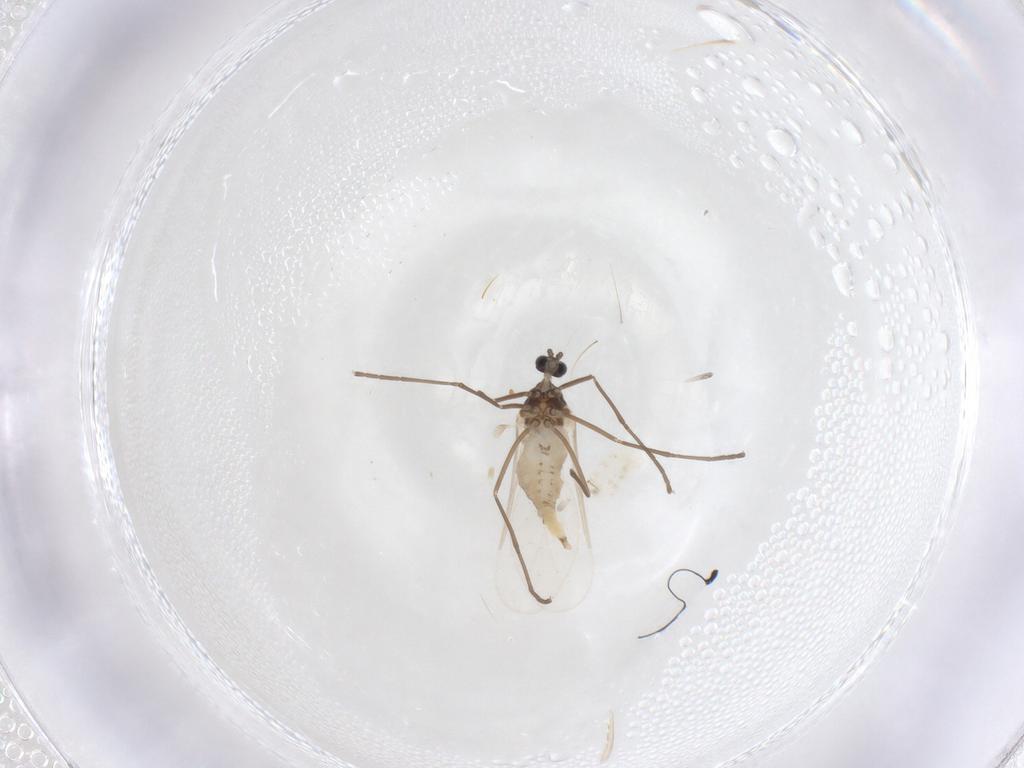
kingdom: Animalia
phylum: Arthropoda
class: Insecta
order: Diptera
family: Cecidomyiidae
